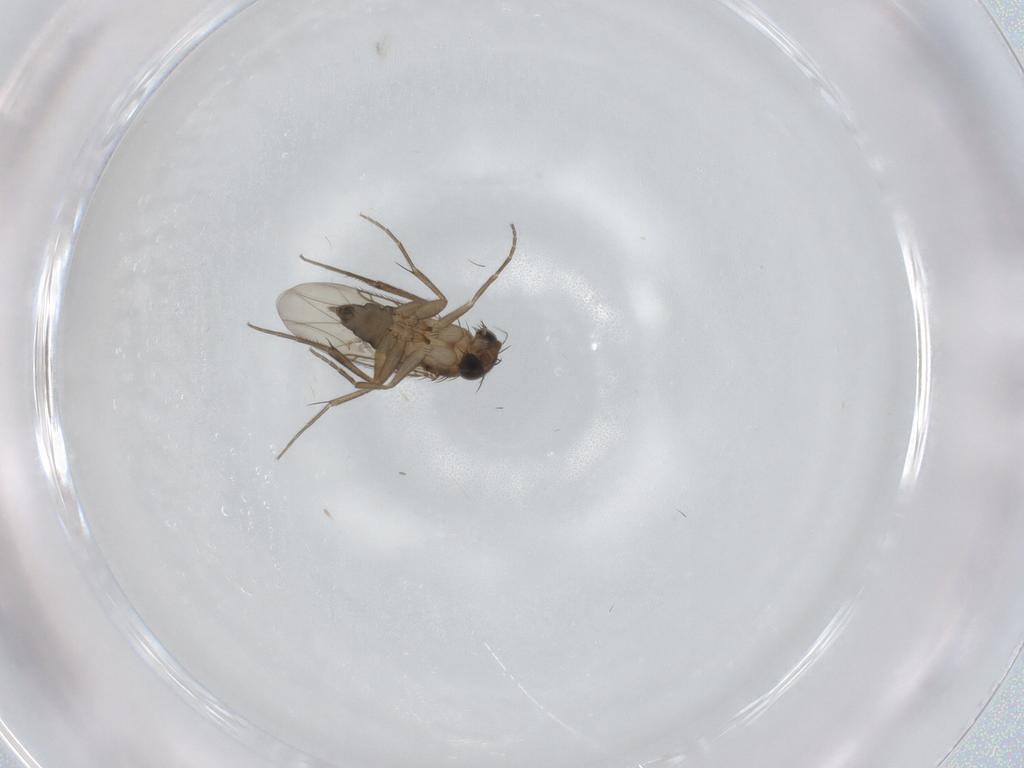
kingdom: Animalia
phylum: Arthropoda
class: Insecta
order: Diptera
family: Phoridae
